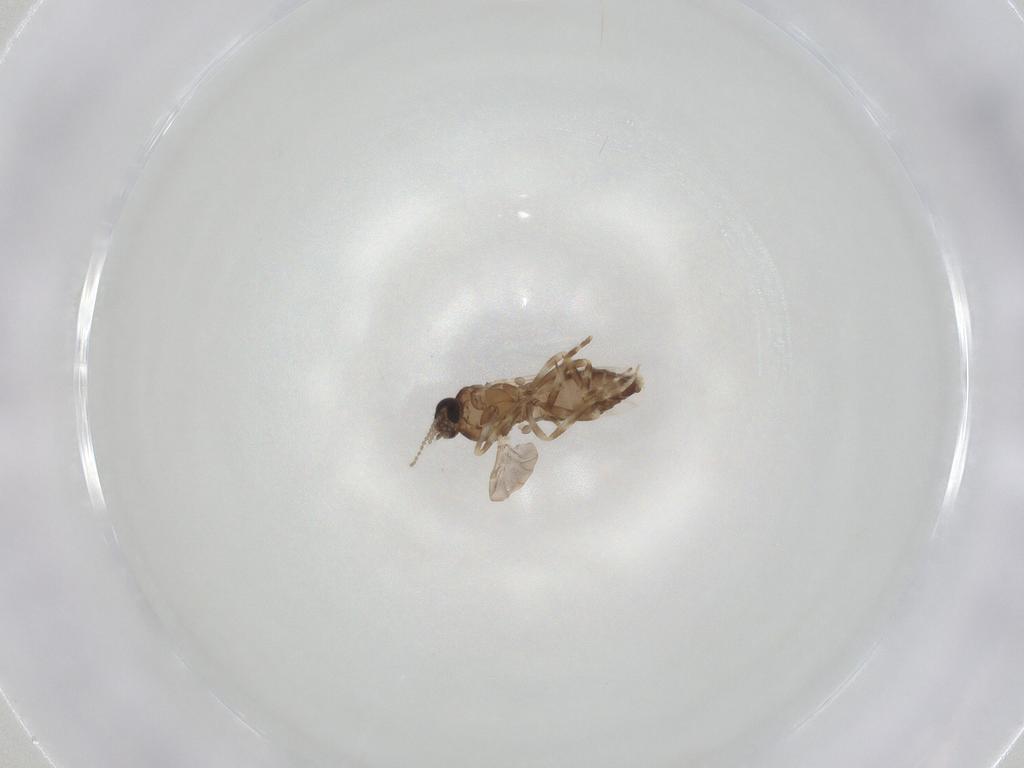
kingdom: Animalia
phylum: Arthropoda
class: Insecta
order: Diptera
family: Ceratopogonidae
